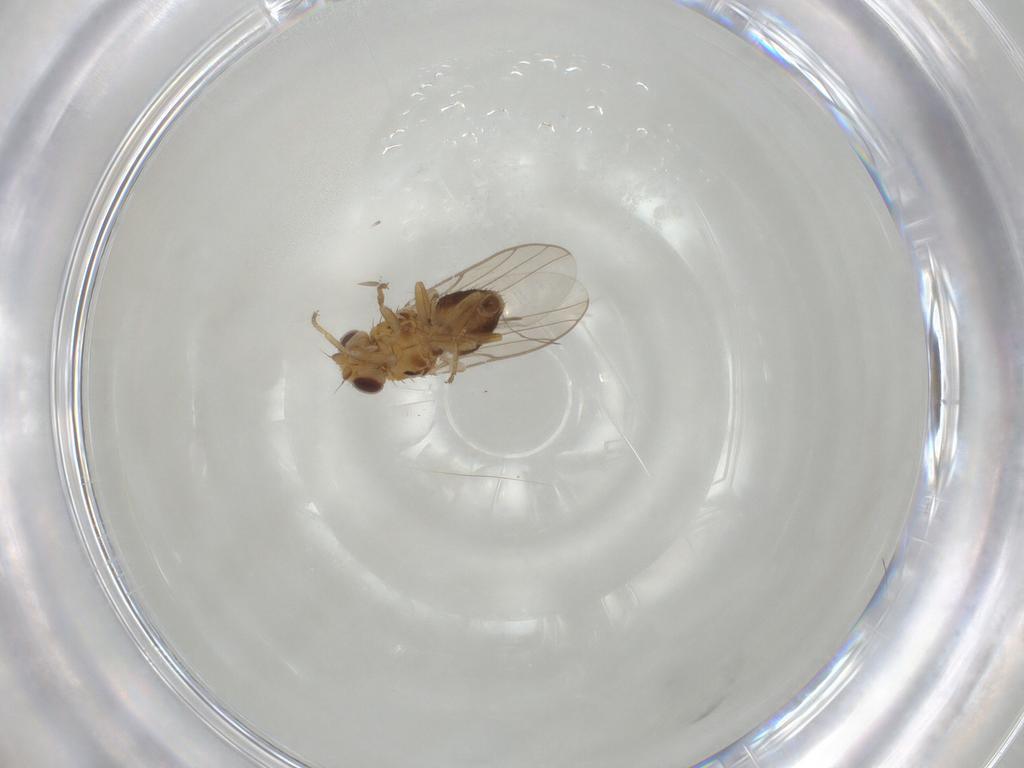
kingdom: Animalia
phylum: Arthropoda
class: Insecta
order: Diptera
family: Chloropidae
